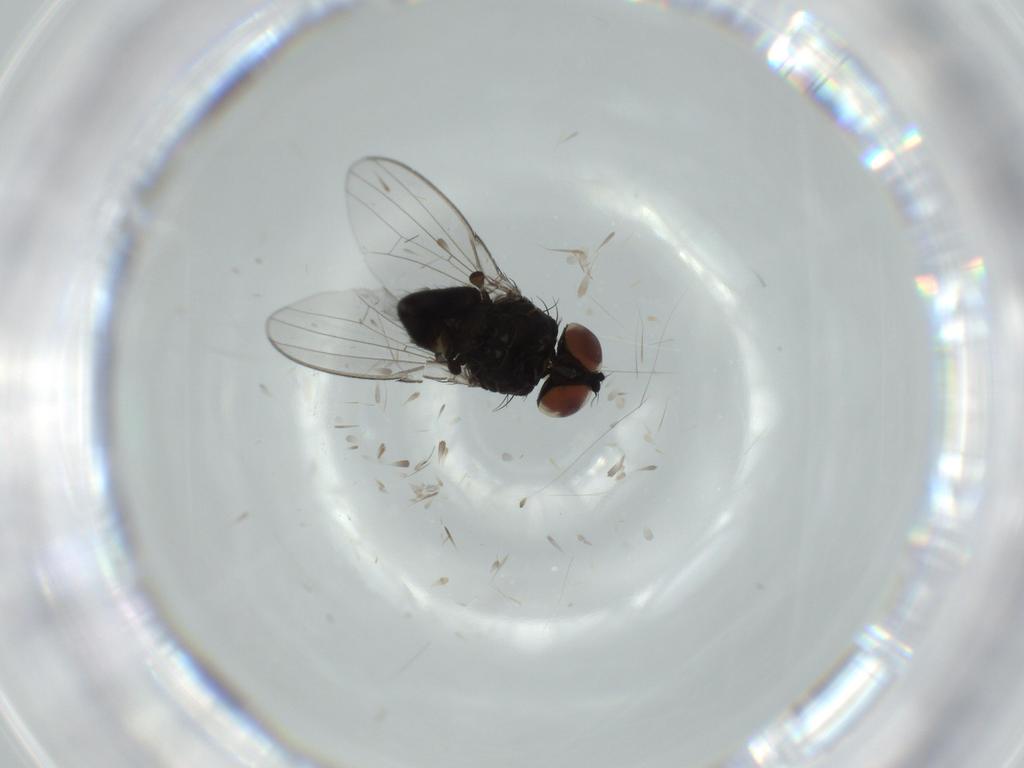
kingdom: Animalia
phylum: Arthropoda
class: Insecta
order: Diptera
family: Milichiidae
